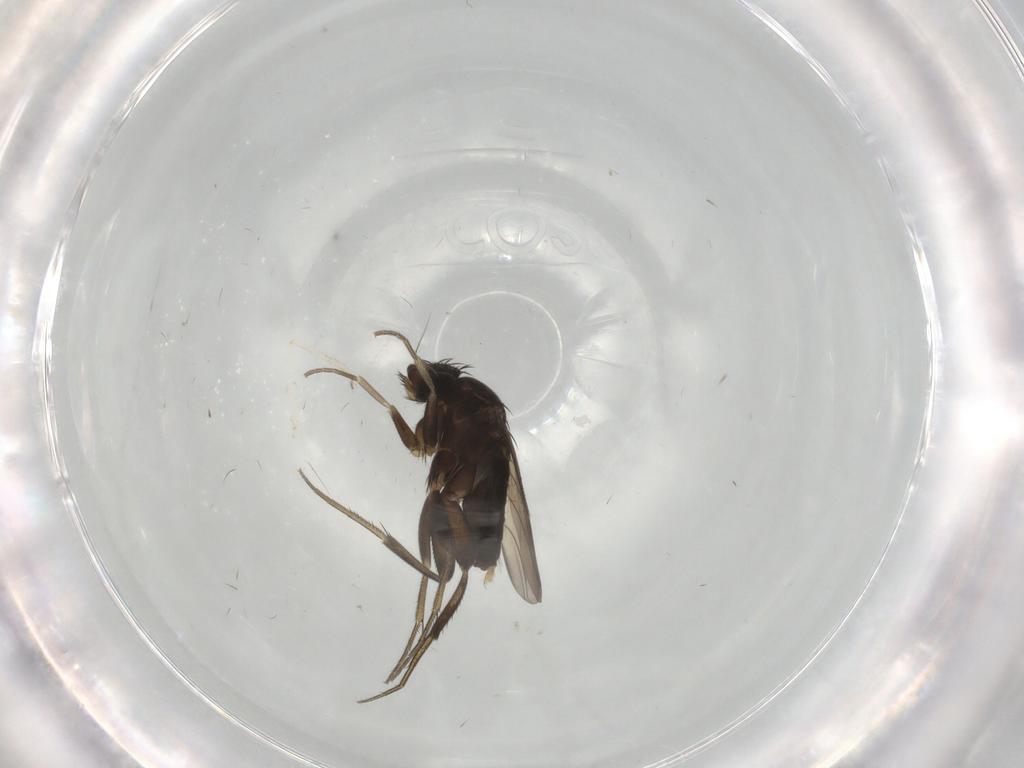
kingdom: Animalia
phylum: Arthropoda
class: Insecta
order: Diptera
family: Phoridae
